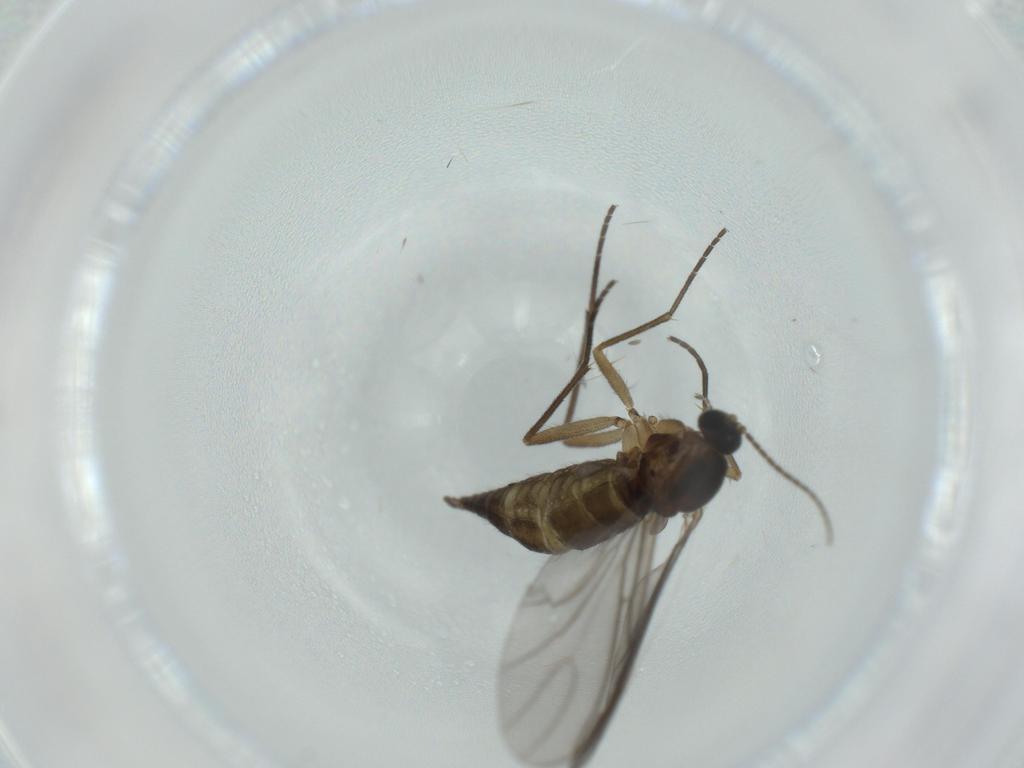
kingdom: Animalia
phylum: Arthropoda
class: Insecta
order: Diptera
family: Sciaridae
